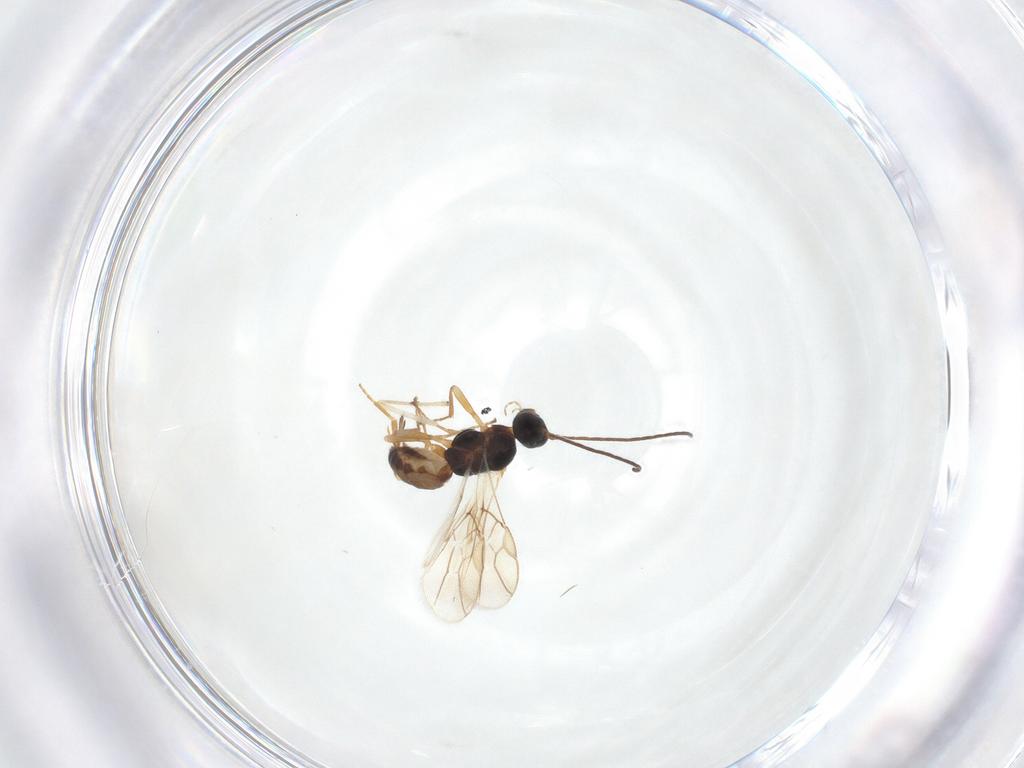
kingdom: Animalia
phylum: Arthropoda
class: Insecta
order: Hymenoptera
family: Braconidae
